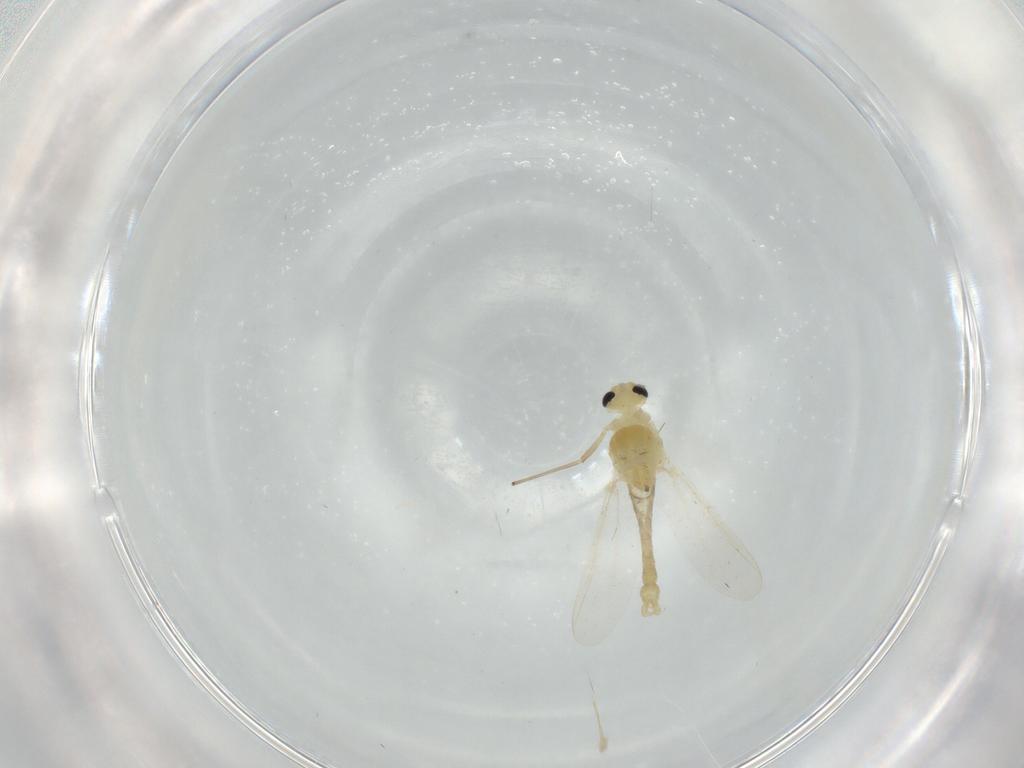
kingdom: Animalia
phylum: Arthropoda
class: Insecta
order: Diptera
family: Chironomidae
